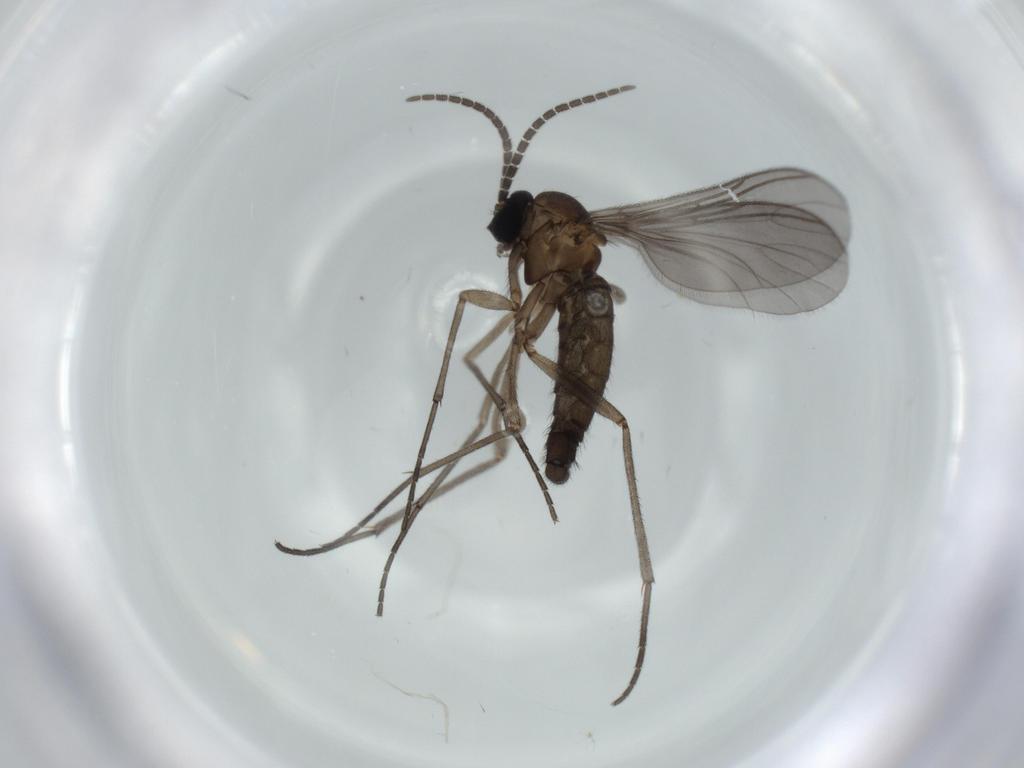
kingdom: Animalia
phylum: Arthropoda
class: Insecta
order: Diptera
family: Sciaridae
